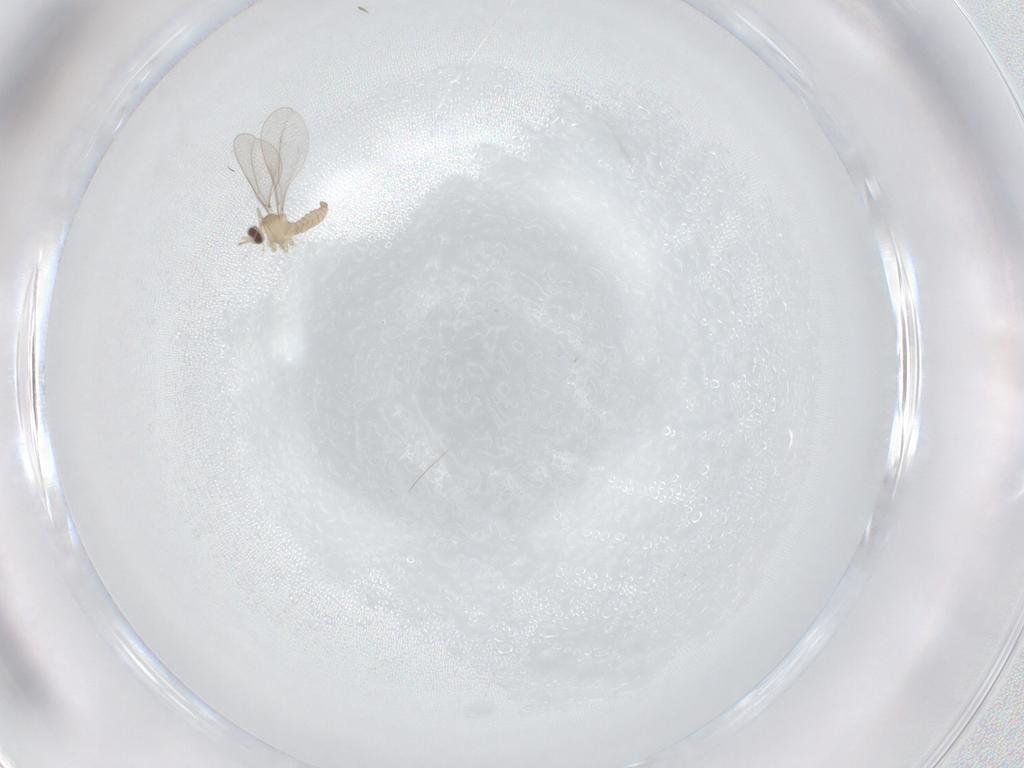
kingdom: Animalia
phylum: Arthropoda
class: Insecta
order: Diptera
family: Cecidomyiidae
